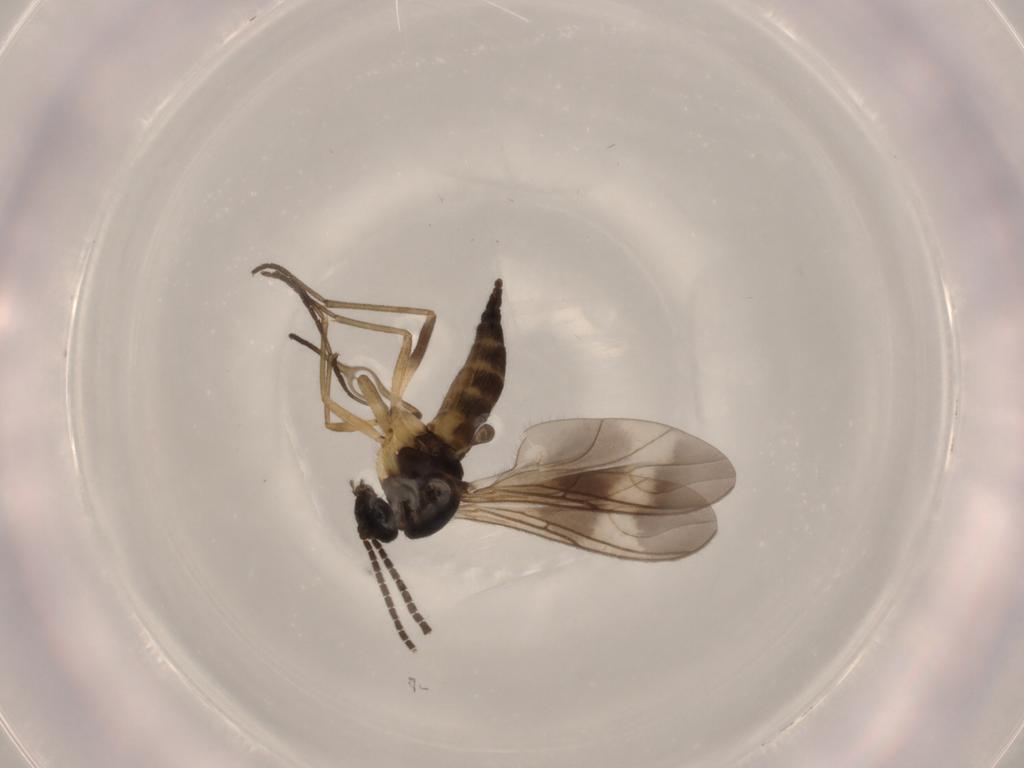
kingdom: Animalia
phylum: Arthropoda
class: Insecta
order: Diptera
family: Sciaridae
